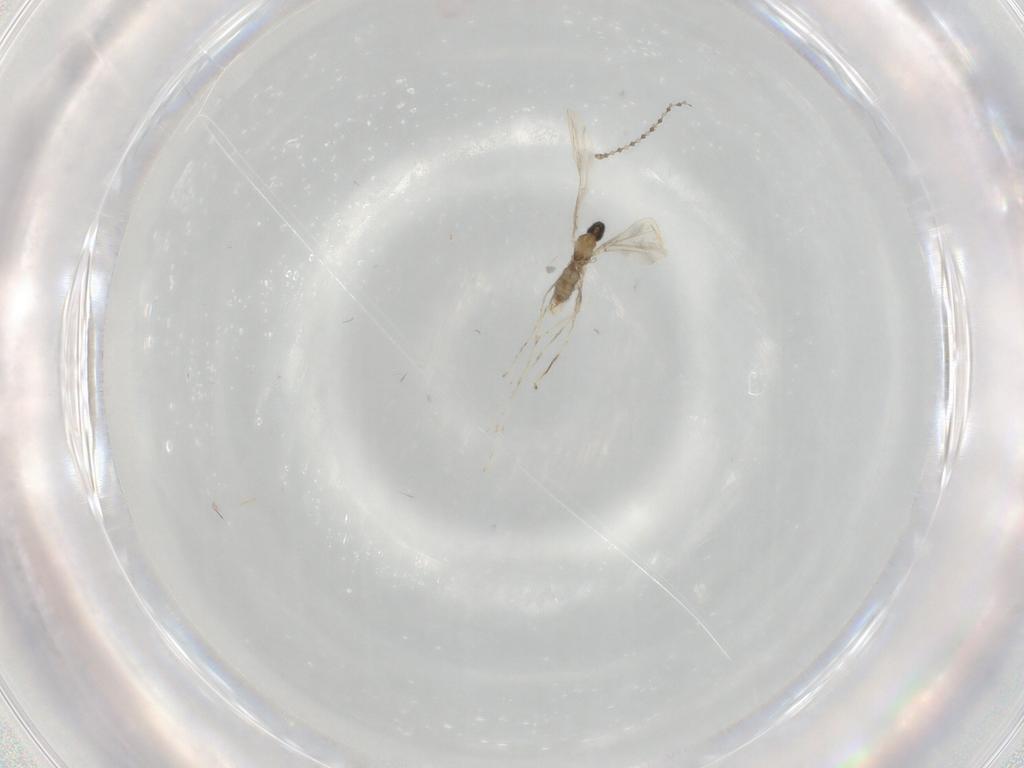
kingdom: Animalia
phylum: Arthropoda
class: Insecta
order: Diptera
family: Cecidomyiidae
